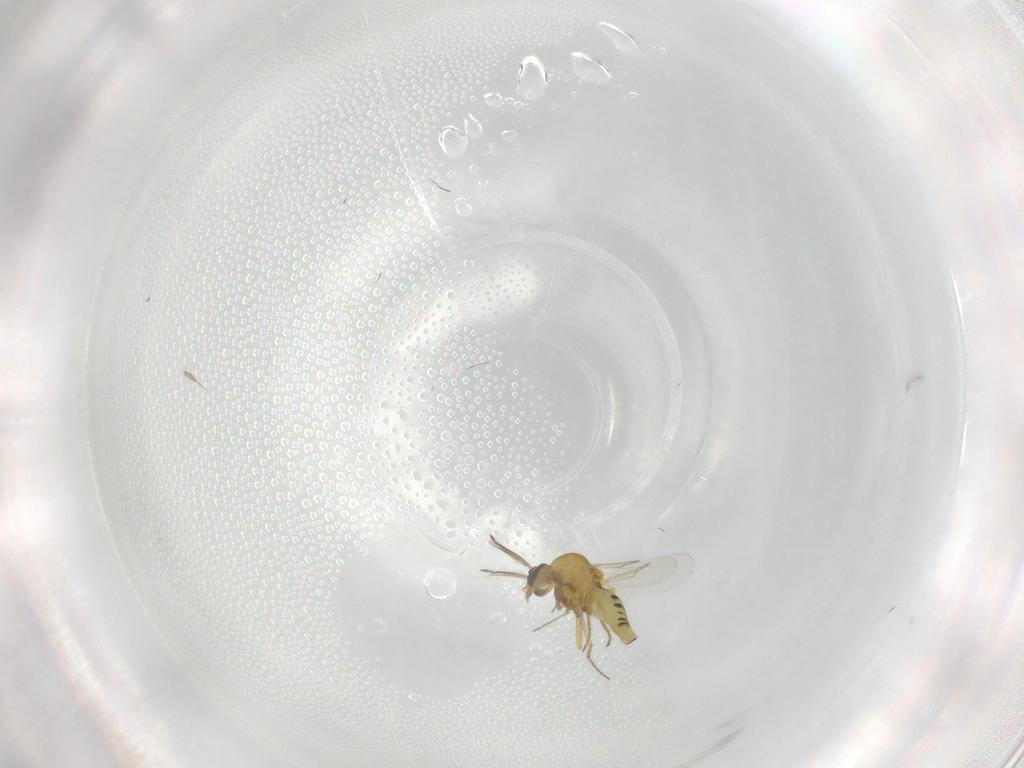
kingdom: Animalia
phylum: Arthropoda
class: Insecta
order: Diptera
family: Ceratopogonidae
